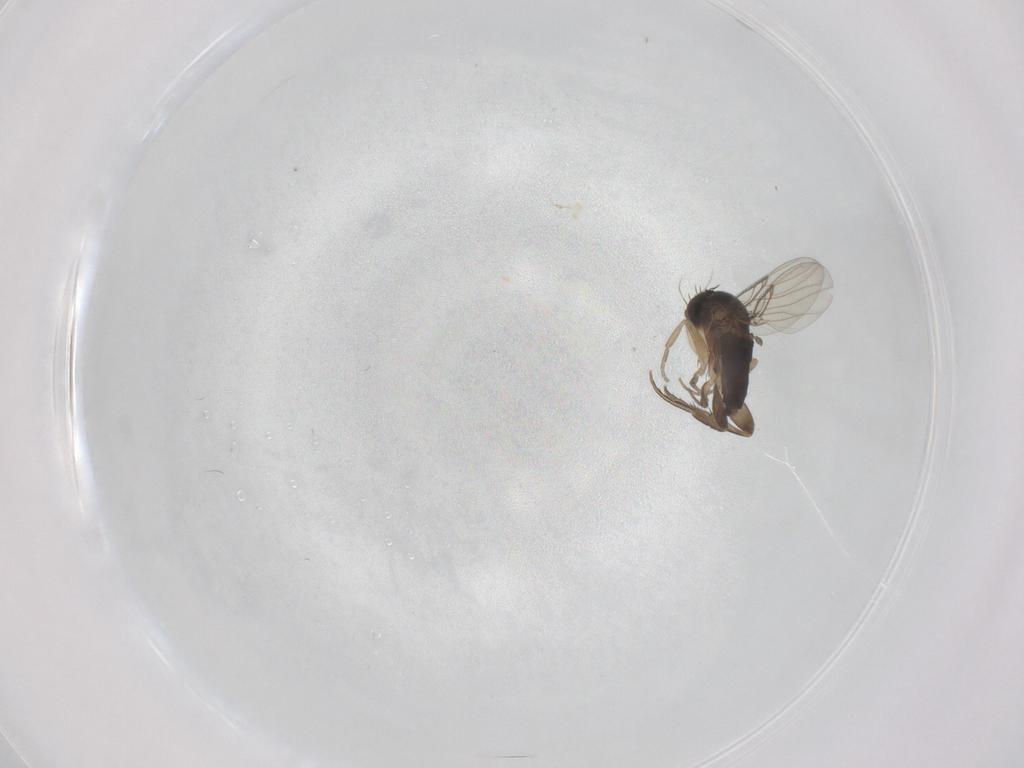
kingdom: Animalia
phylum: Arthropoda
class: Insecta
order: Diptera
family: Phoridae
